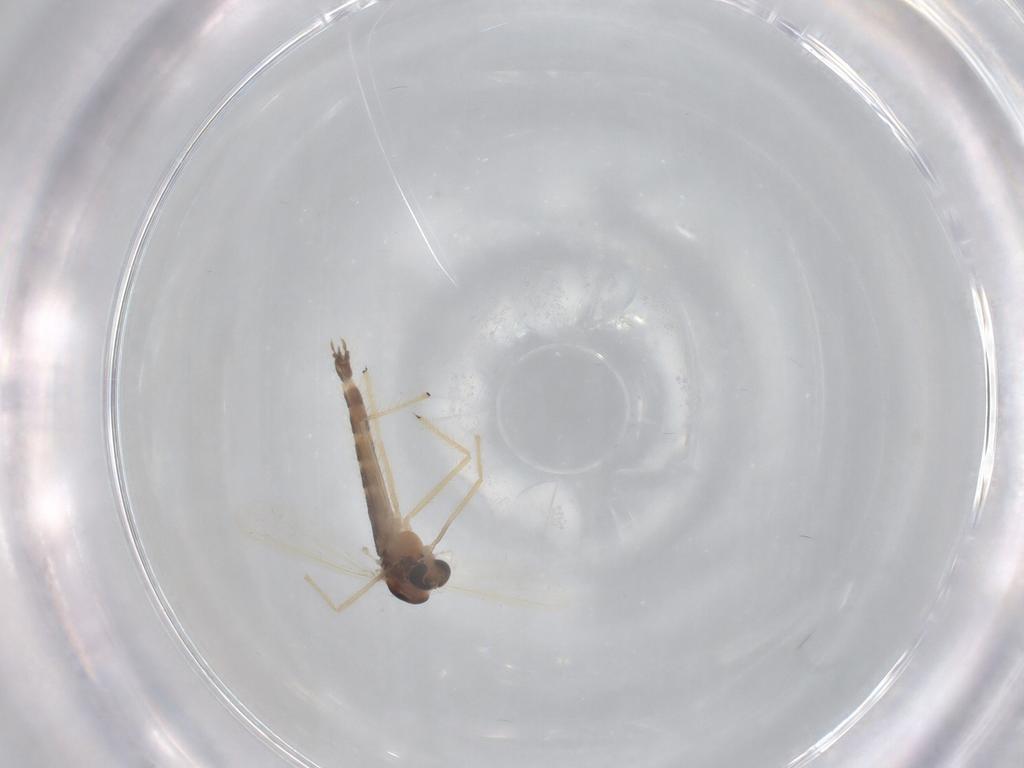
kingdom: Animalia
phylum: Arthropoda
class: Insecta
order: Diptera
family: Chironomidae
